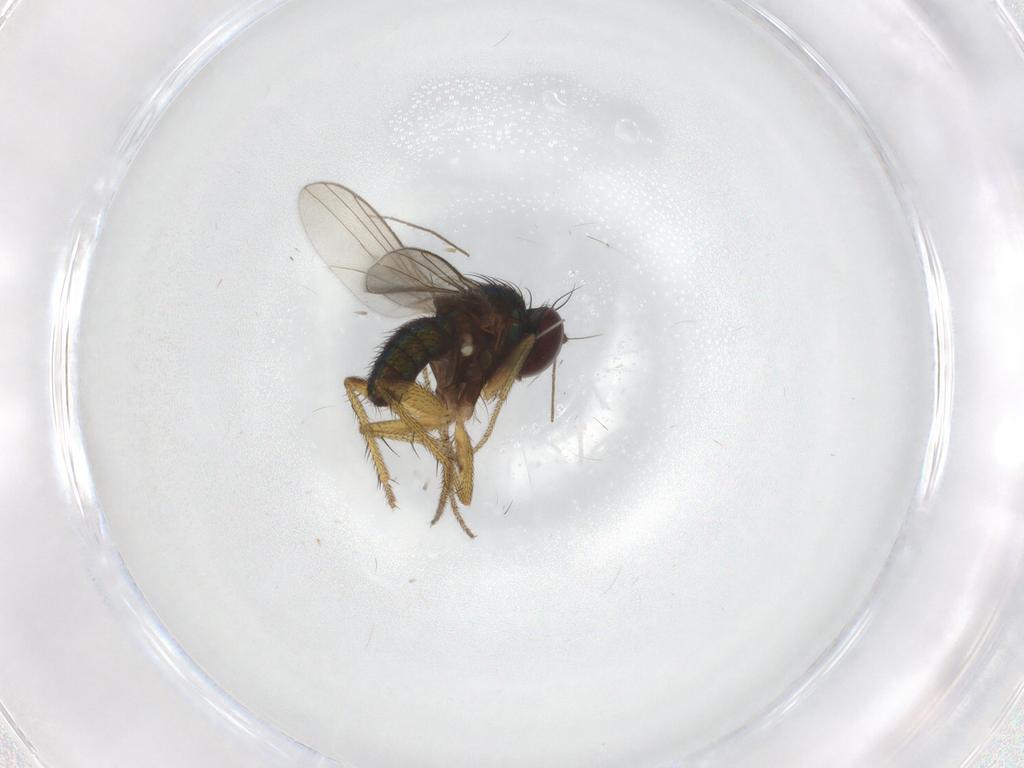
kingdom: Animalia
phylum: Arthropoda
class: Insecta
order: Diptera
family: Chironomidae
